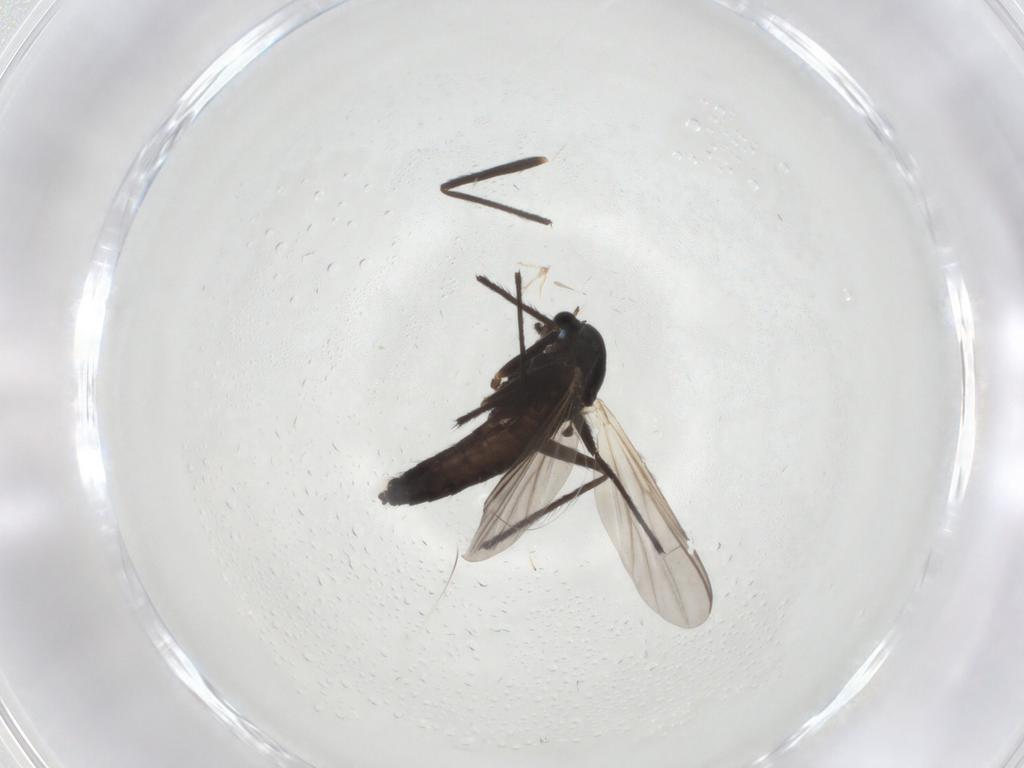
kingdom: Animalia
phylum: Arthropoda
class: Insecta
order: Diptera
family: Chironomidae
